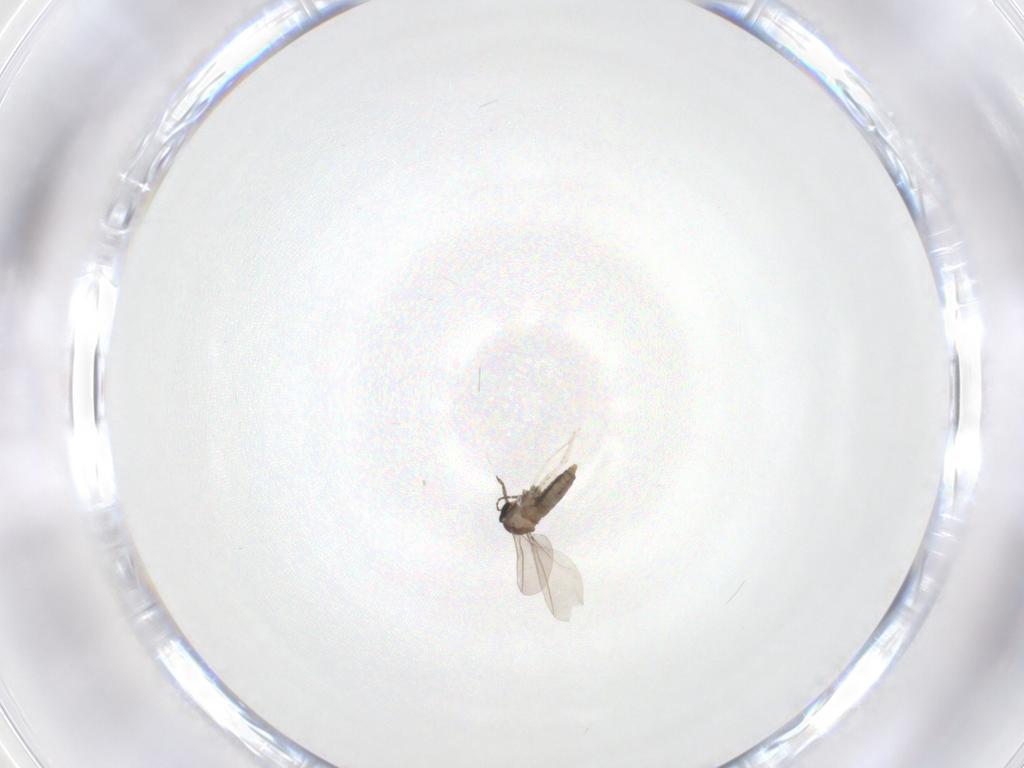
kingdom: Animalia
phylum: Arthropoda
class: Insecta
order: Diptera
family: Cecidomyiidae
